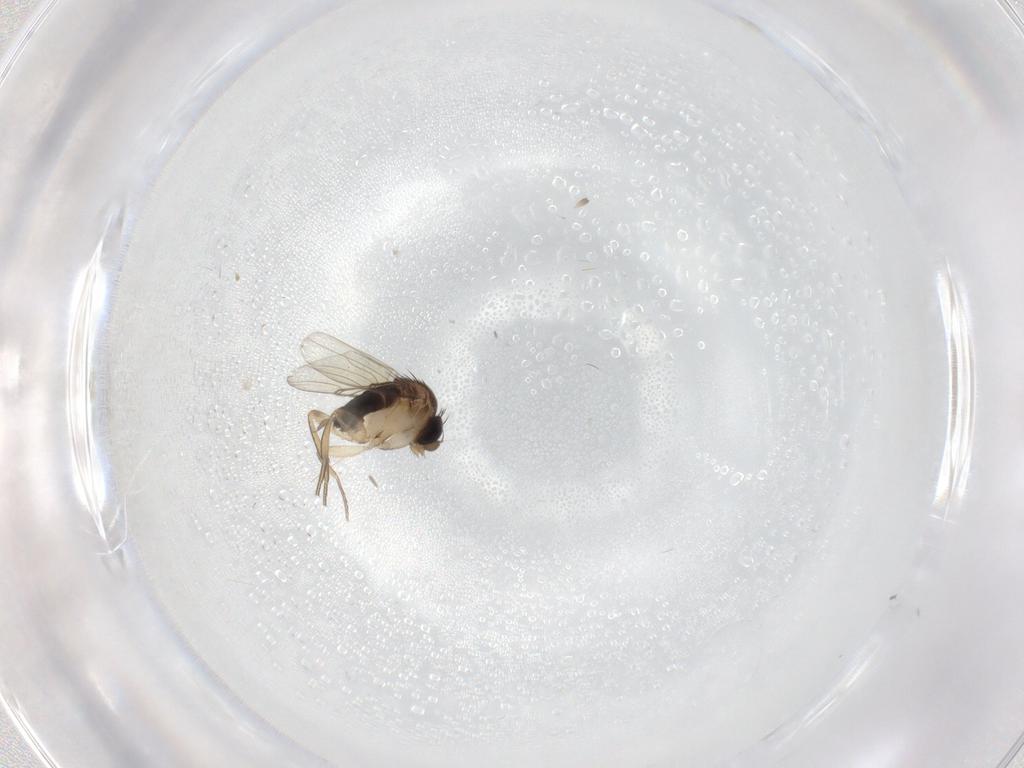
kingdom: Animalia
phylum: Arthropoda
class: Insecta
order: Diptera
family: Phoridae
